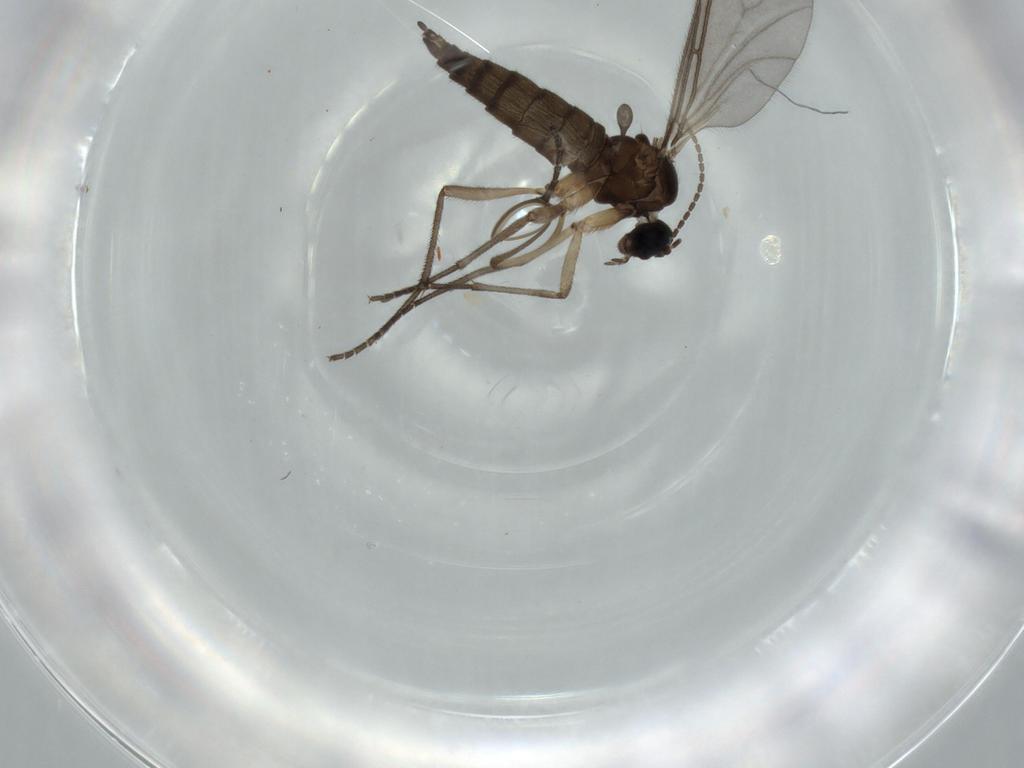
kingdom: Animalia
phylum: Arthropoda
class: Insecta
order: Diptera
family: Sciaridae
